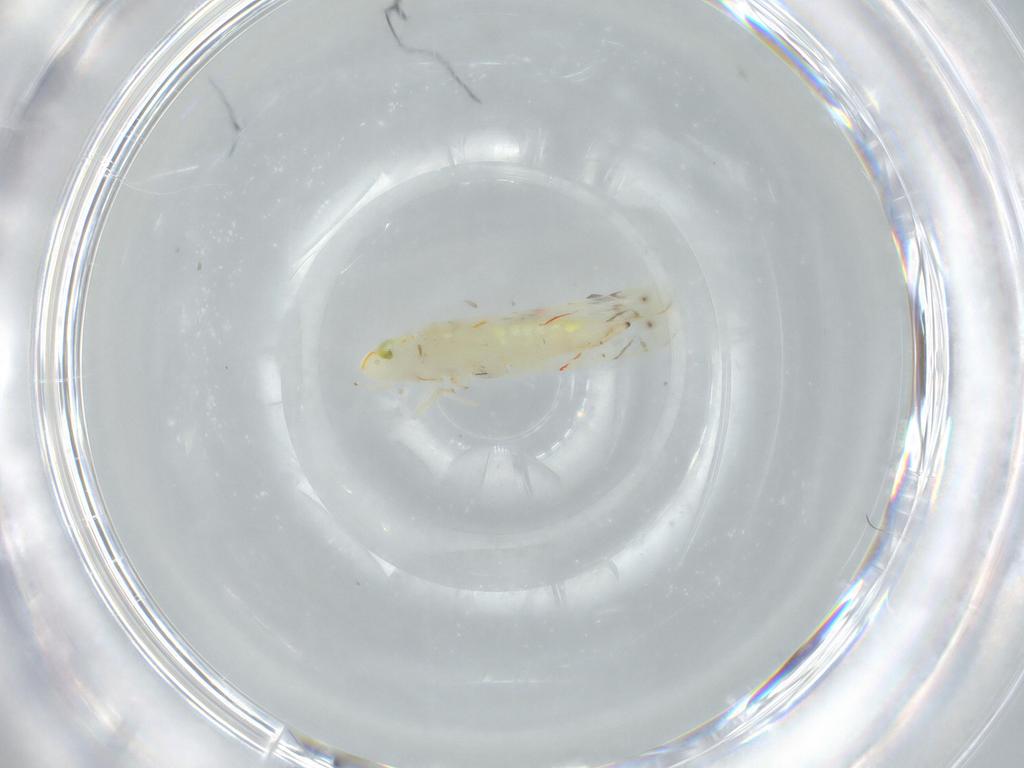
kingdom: Animalia
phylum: Arthropoda
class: Insecta
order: Hemiptera
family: Cicadellidae
